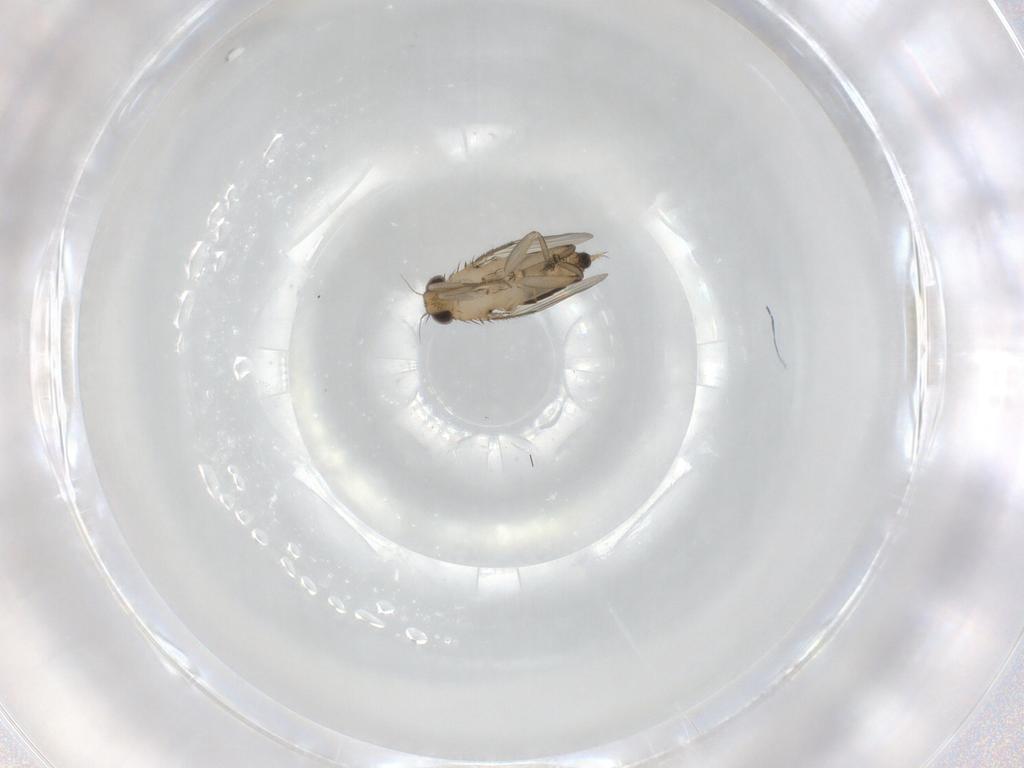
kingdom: Animalia
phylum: Arthropoda
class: Insecta
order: Diptera
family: Phoridae
